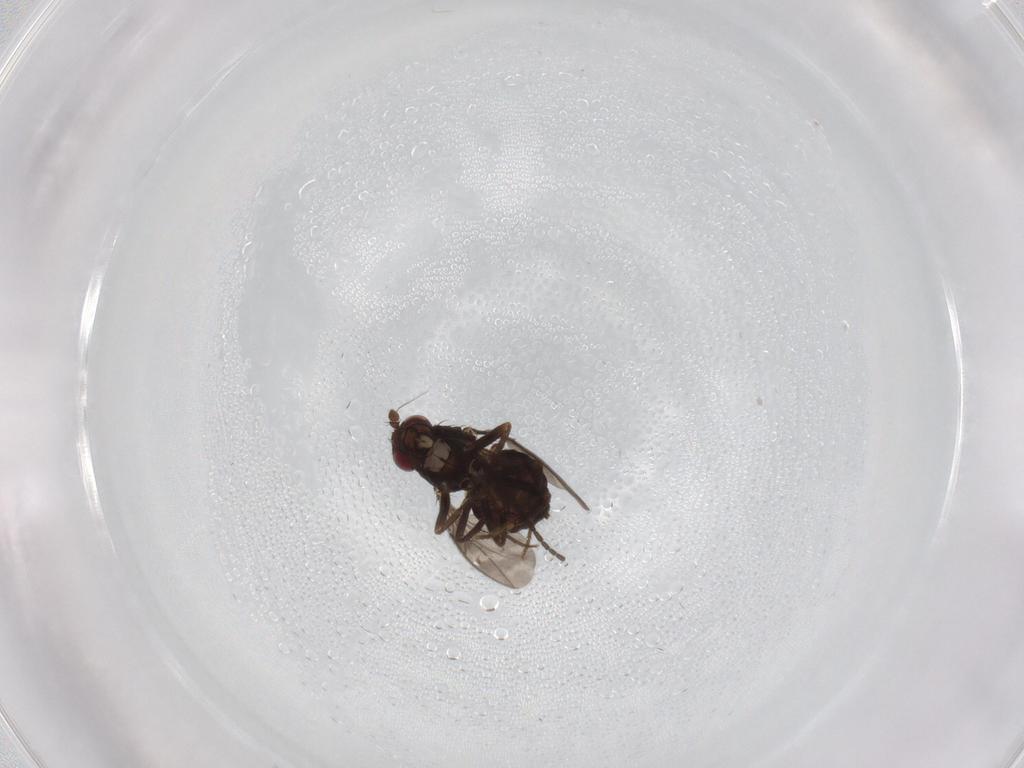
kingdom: Animalia
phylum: Arthropoda
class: Insecta
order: Diptera
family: Sphaeroceridae
